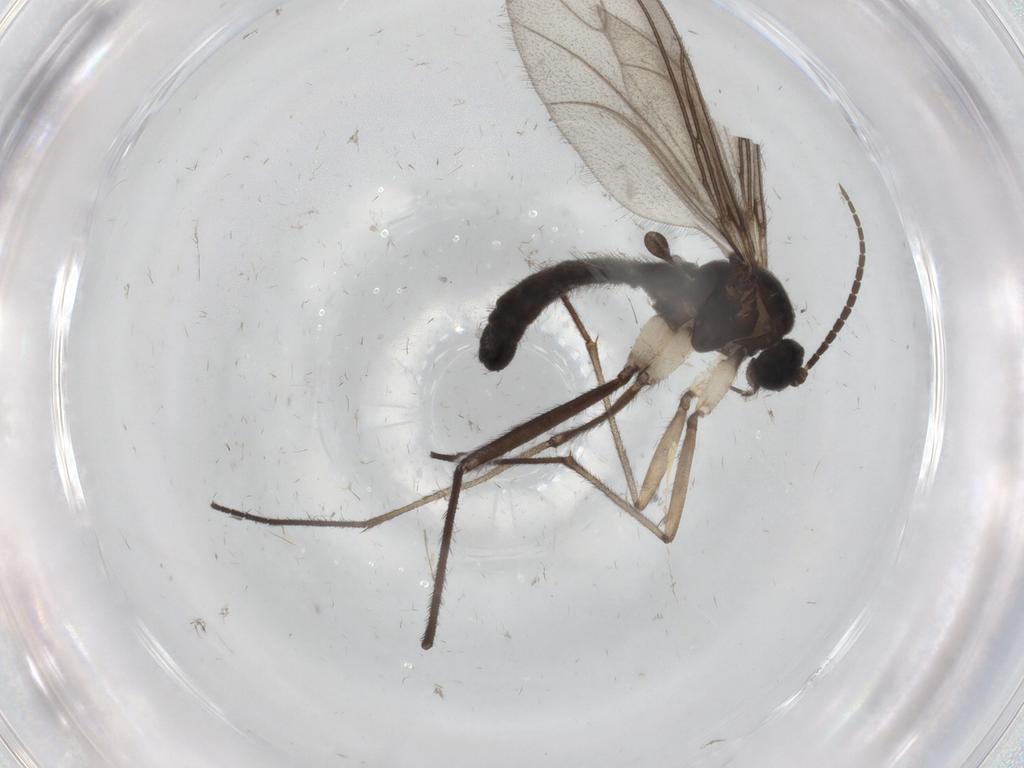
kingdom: Animalia
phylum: Arthropoda
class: Insecta
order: Diptera
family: Sciaridae
